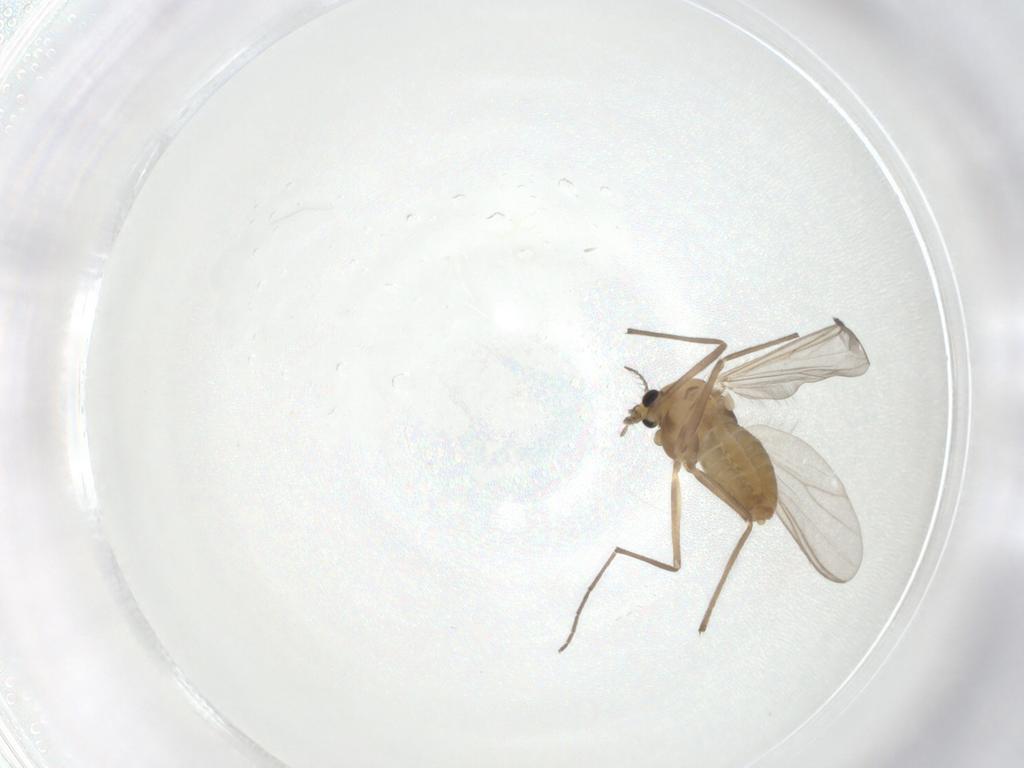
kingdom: Animalia
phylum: Arthropoda
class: Insecta
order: Diptera
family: Chironomidae
